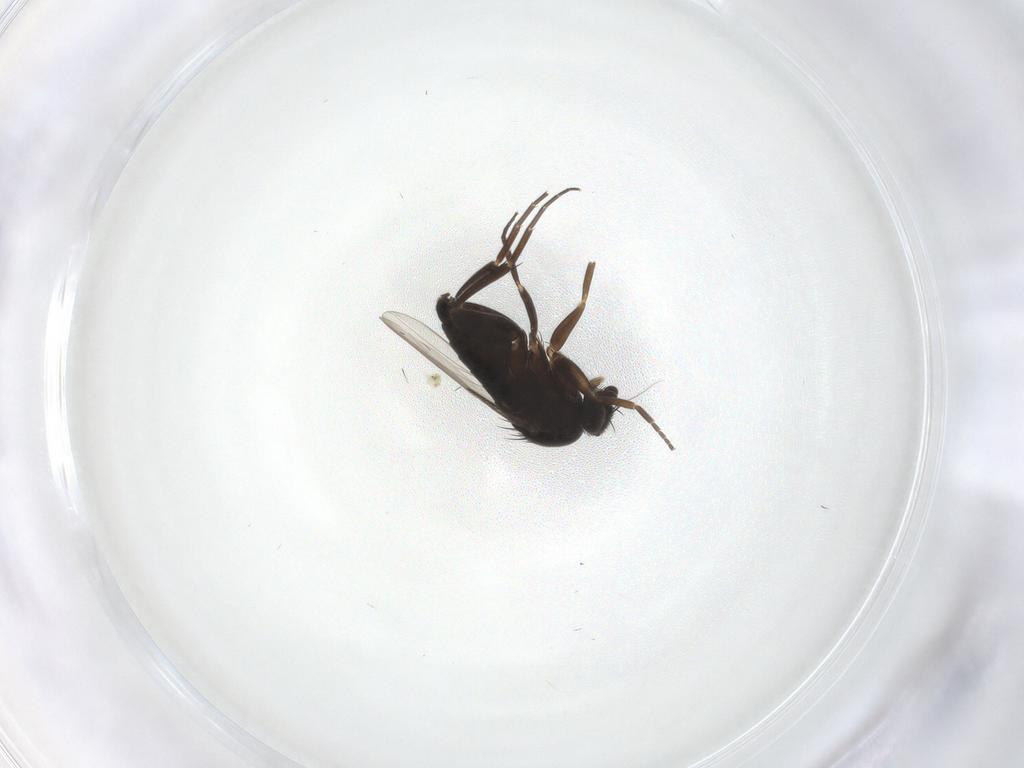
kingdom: Animalia
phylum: Arthropoda
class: Insecta
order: Diptera
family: Phoridae
